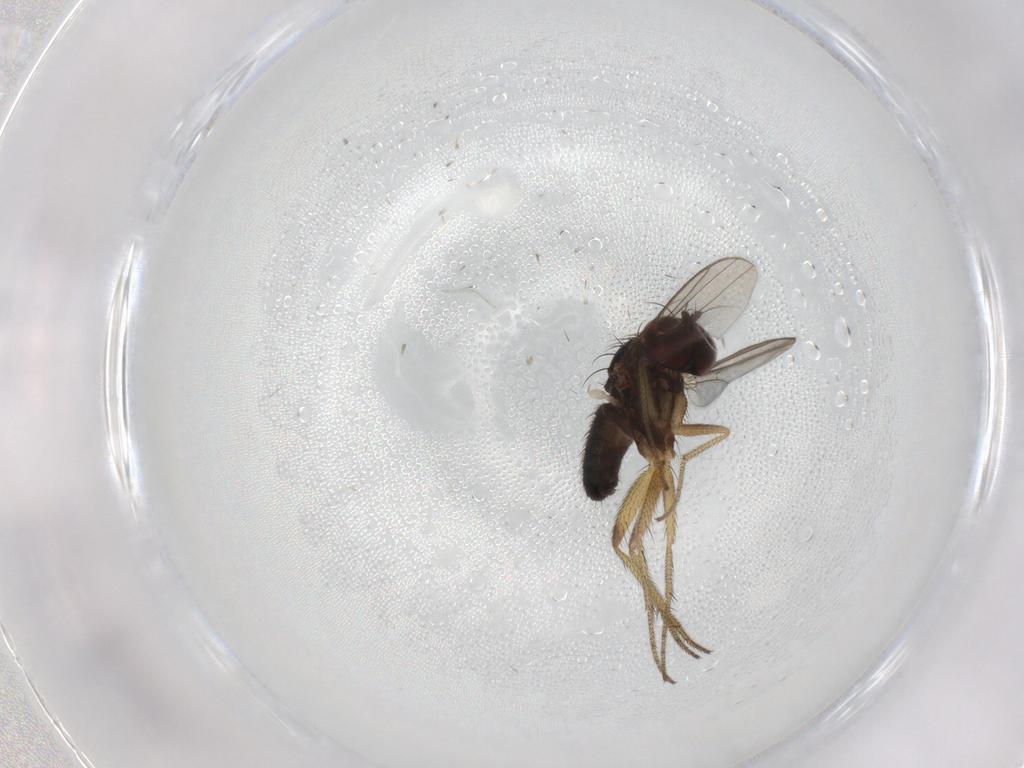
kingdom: Animalia
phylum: Arthropoda
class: Insecta
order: Diptera
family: Dolichopodidae
